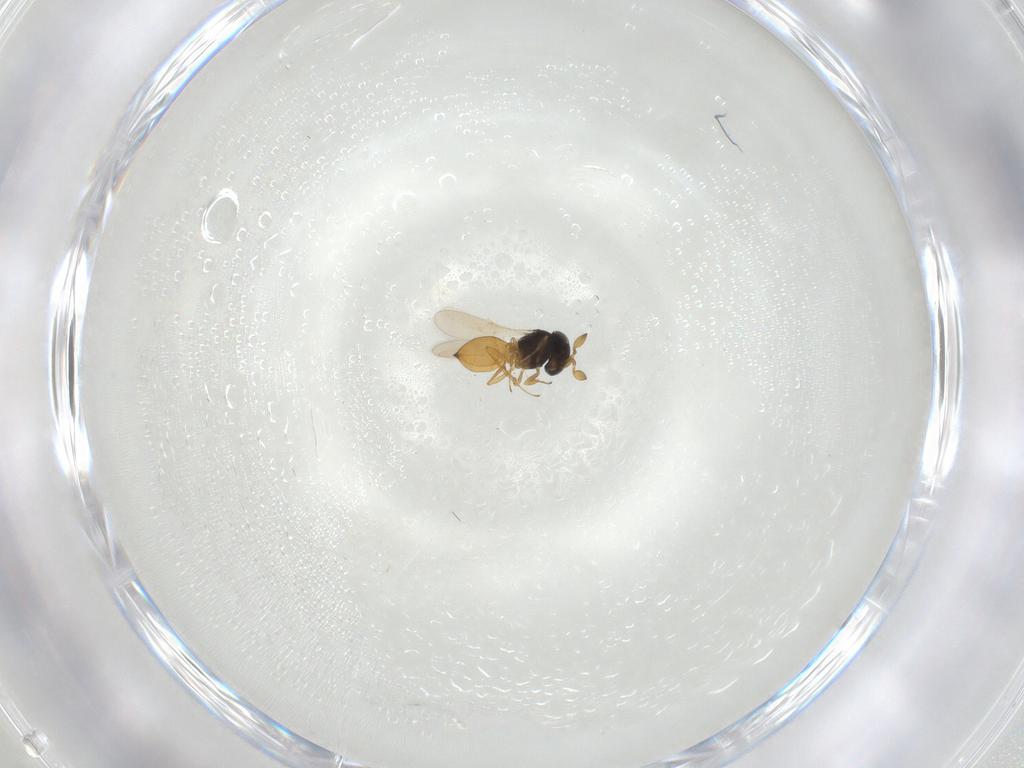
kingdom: Animalia
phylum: Arthropoda
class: Insecta
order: Hymenoptera
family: Scelionidae
